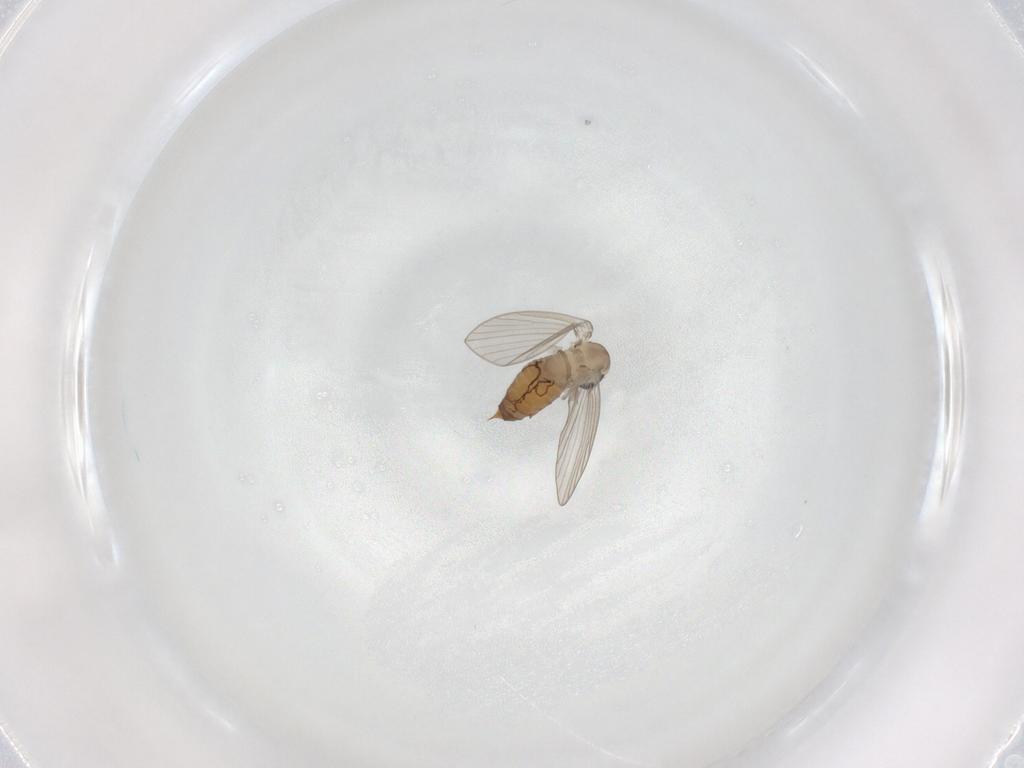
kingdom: Animalia
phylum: Arthropoda
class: Insecta
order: Diptera
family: Psychodidae
